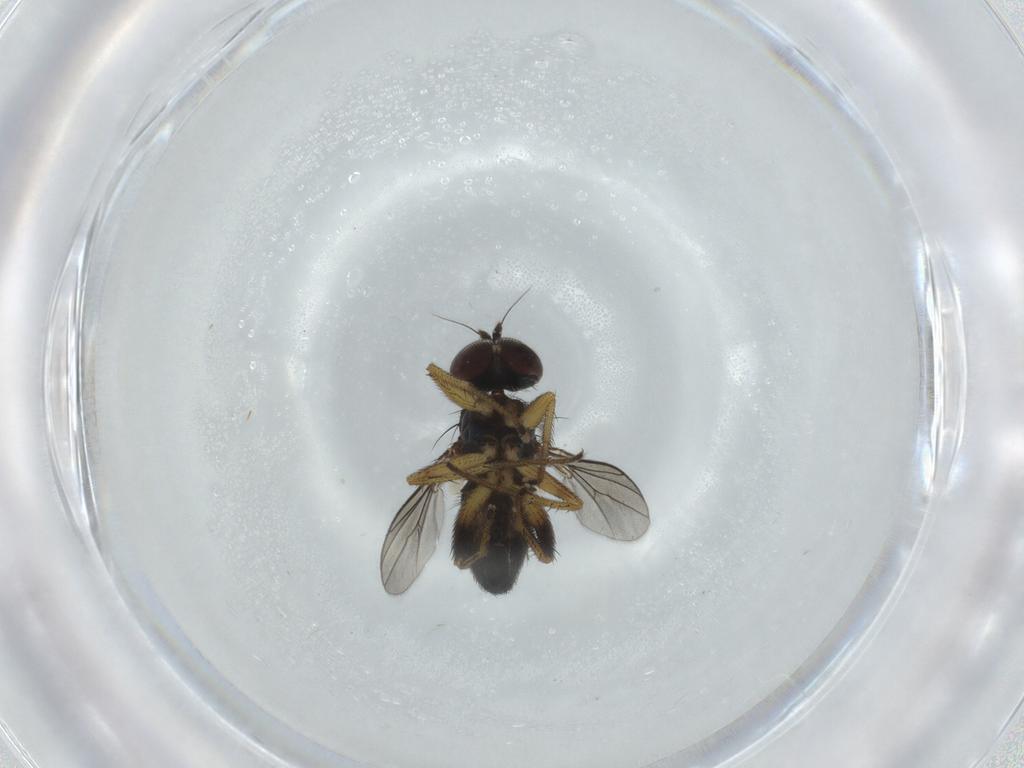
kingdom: Animalia
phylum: Arthropoda
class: Insecta
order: Diptera
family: Dolichopodidae
